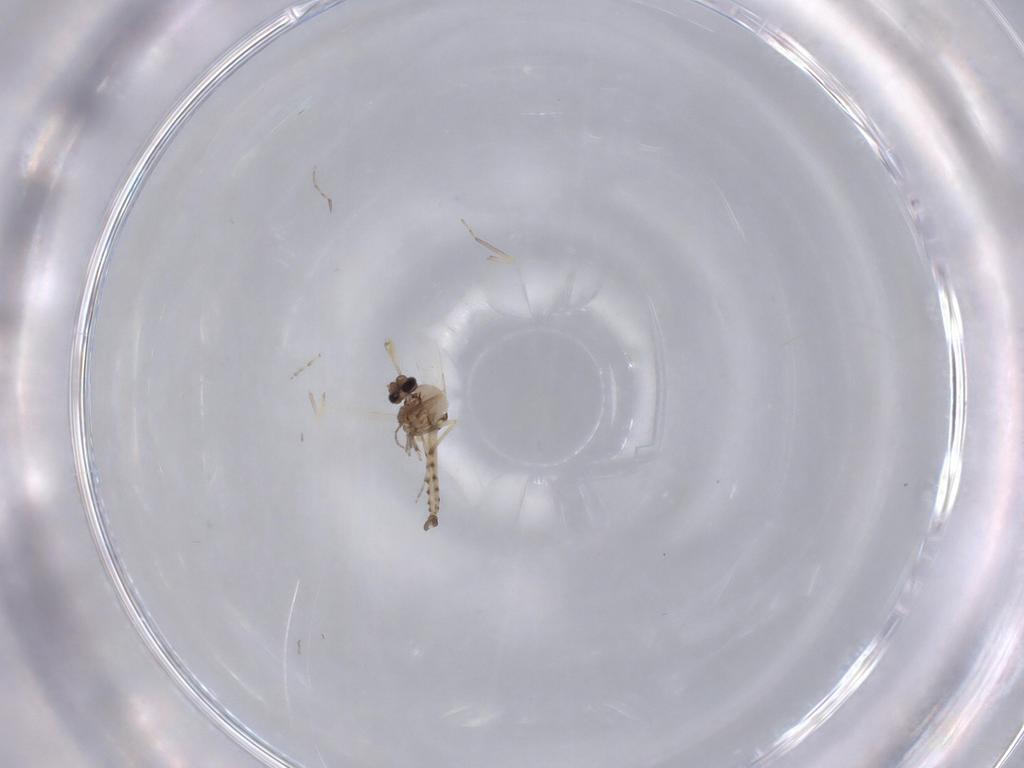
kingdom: Animalia
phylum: Arthropoda
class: Insecta
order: Diptera
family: Ceratopogonidae
